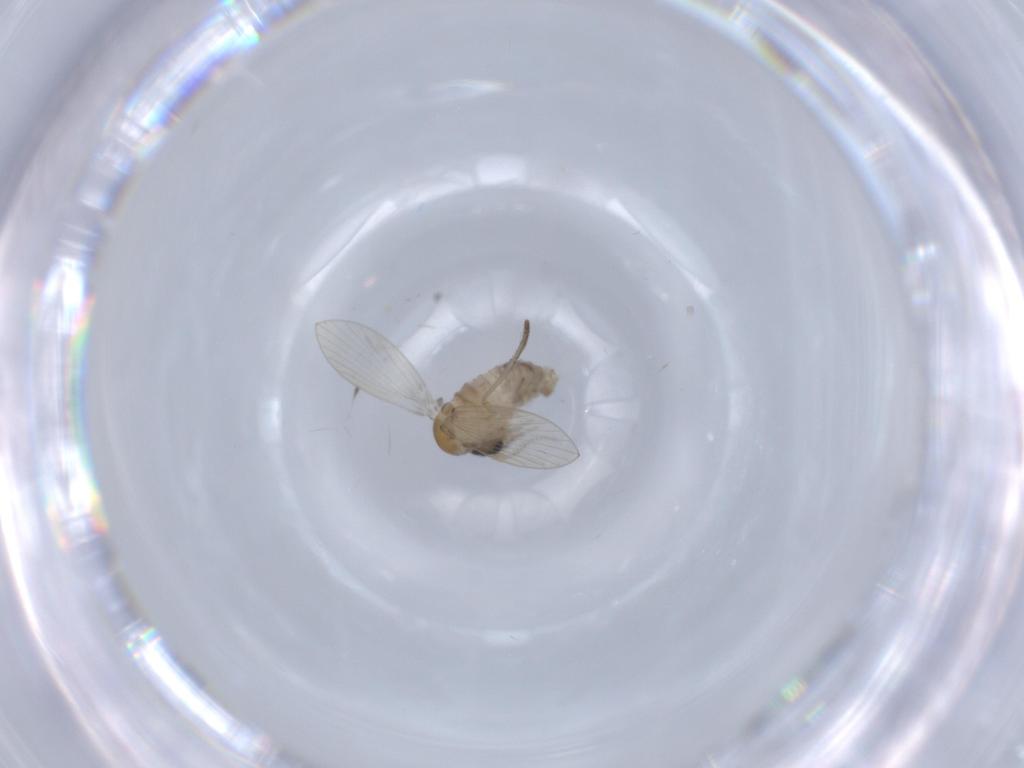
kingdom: Animalia
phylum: Arthropoda
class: Insecta
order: Diptera
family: Psychodidae
